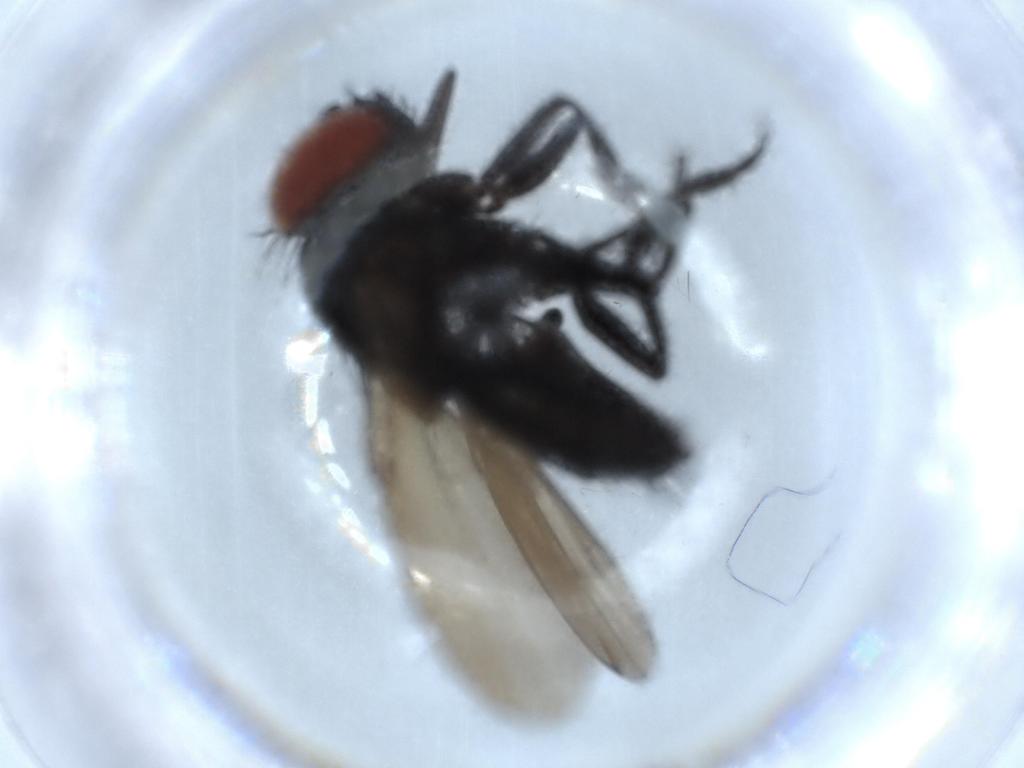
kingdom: Animalia
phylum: Arthropoda
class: Insecta
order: Diptera
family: Milichiidae
